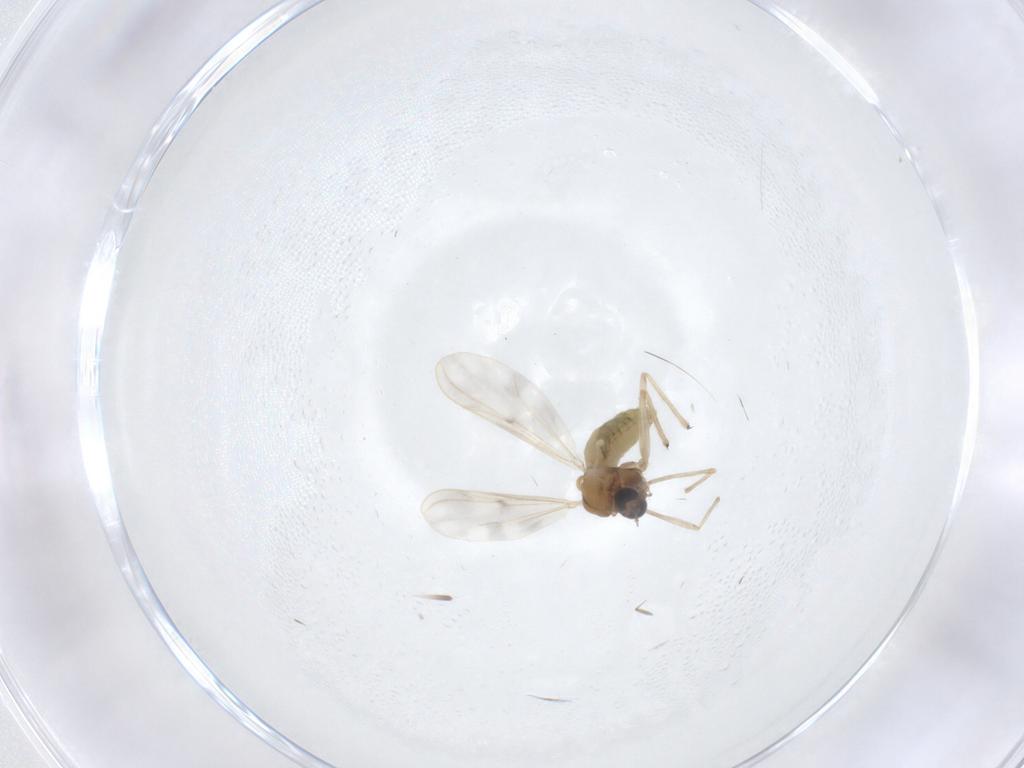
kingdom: Animalia
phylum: Arthropoda
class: Insecta
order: Diptera
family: Chironomidae
